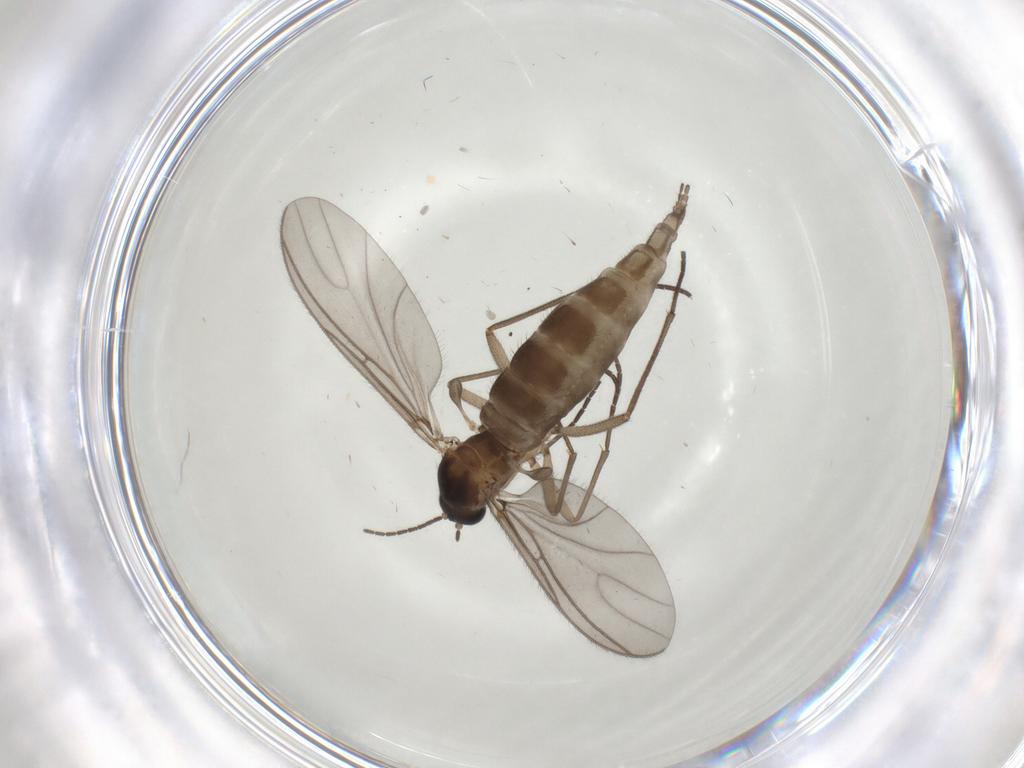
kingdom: Animalia
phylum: Arthropoda
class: Insecta
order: Diptera
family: Limoniidae
